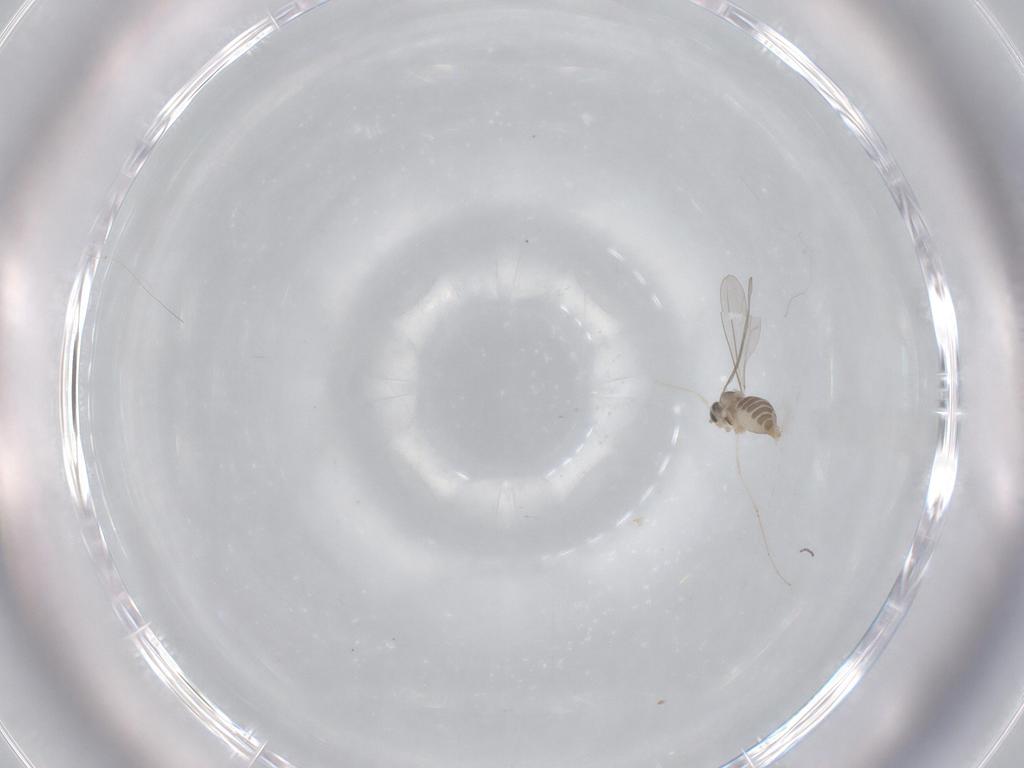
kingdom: Animalia
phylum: Arthropoda
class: Insecta
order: Diptera
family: Cecidomyiidae
